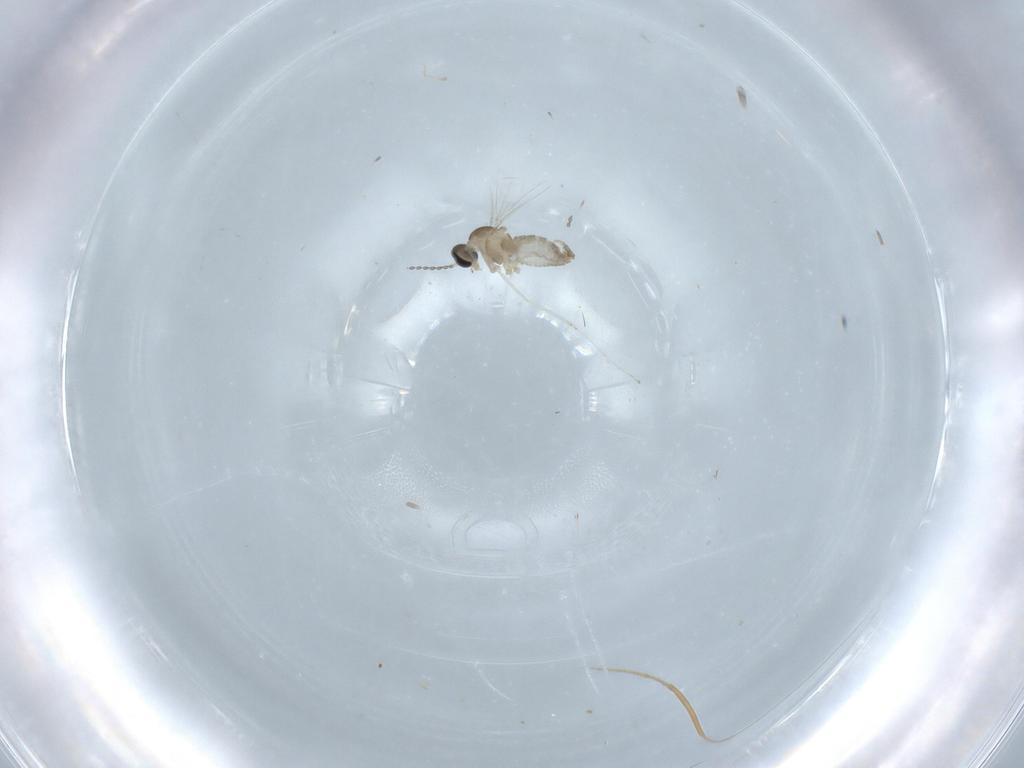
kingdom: Animalia
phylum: Arthropoda
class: Insecta
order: Diptera
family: Cecidomyiidae
